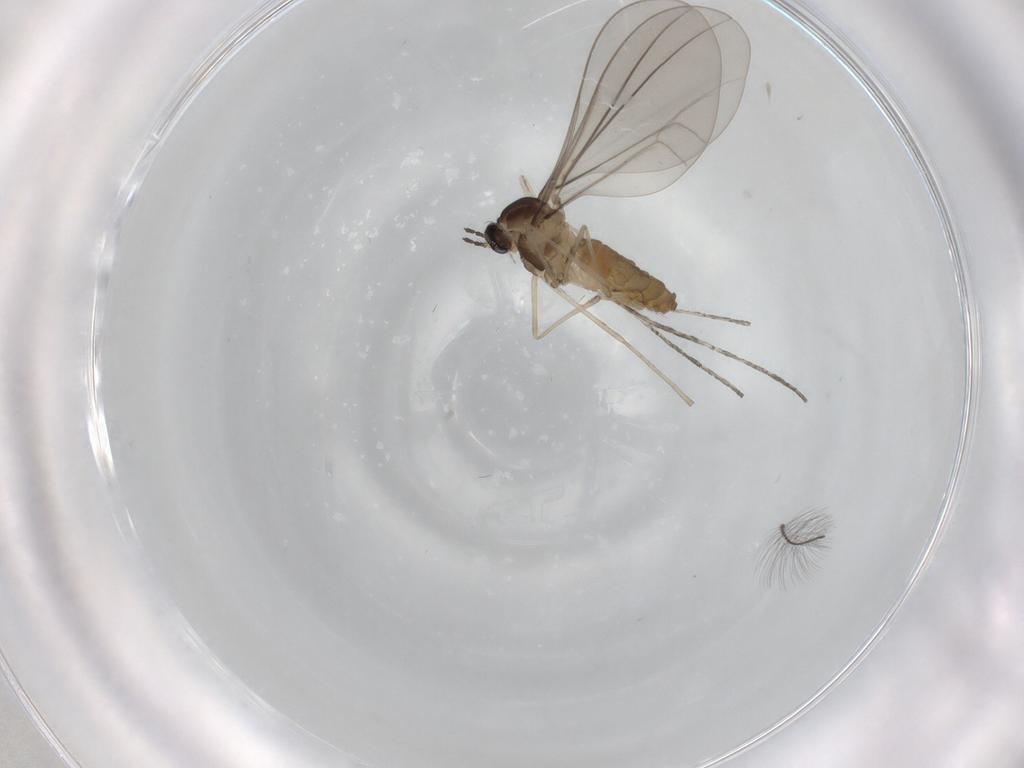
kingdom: Animalia
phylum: Arthropoda
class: Insecta
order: Diptera
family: Cecidomyiidae
